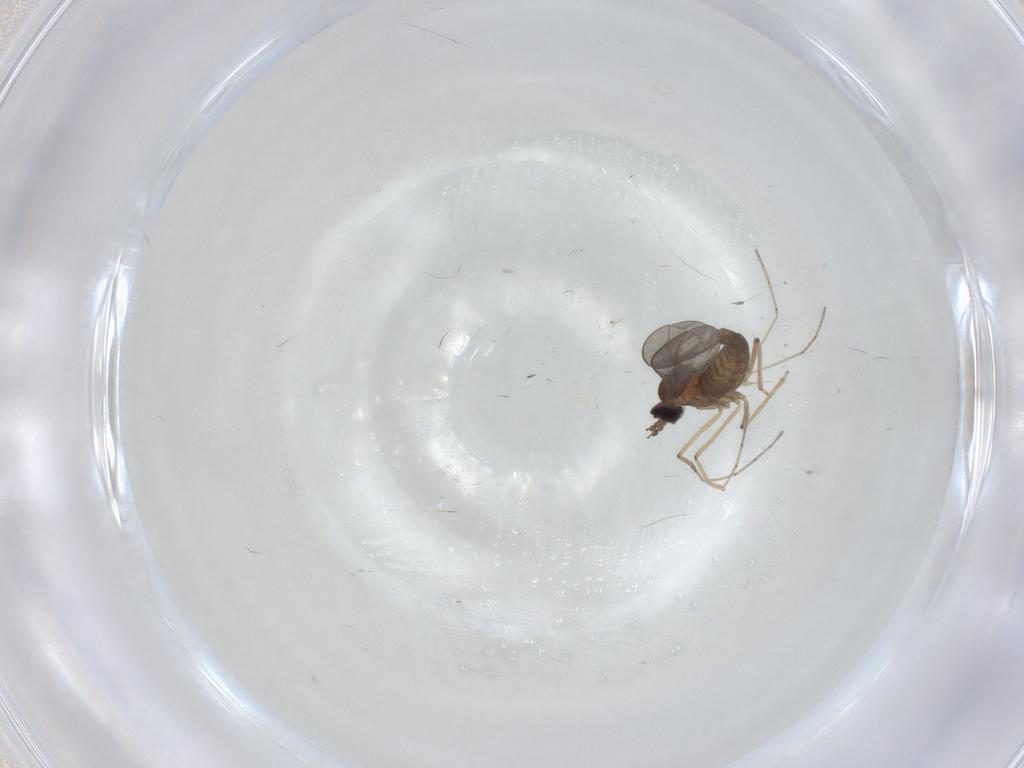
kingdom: Animalia
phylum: Arthropoda
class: Insecta
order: Diptera
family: Cecidomyiidae
